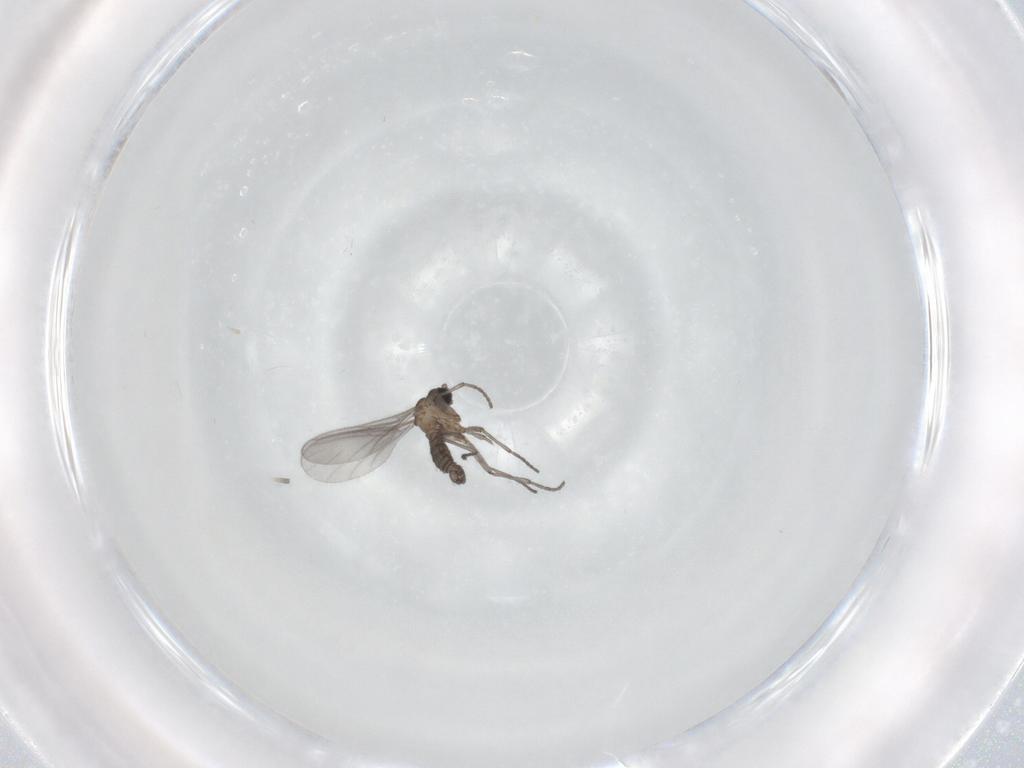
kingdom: Animalia
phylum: Arthropoda
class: Insecta
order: Diptera
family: Sciaridae
